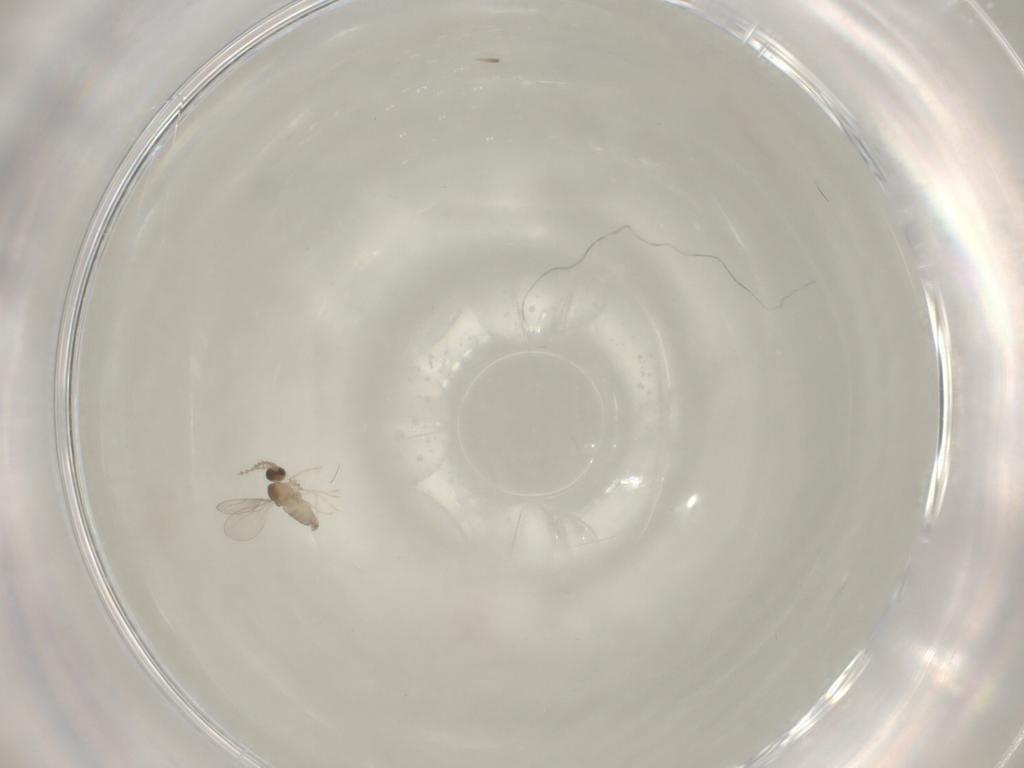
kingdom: Animalia
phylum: Arthropoda
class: Insecta
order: Diptera
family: Cecidomyiidae
